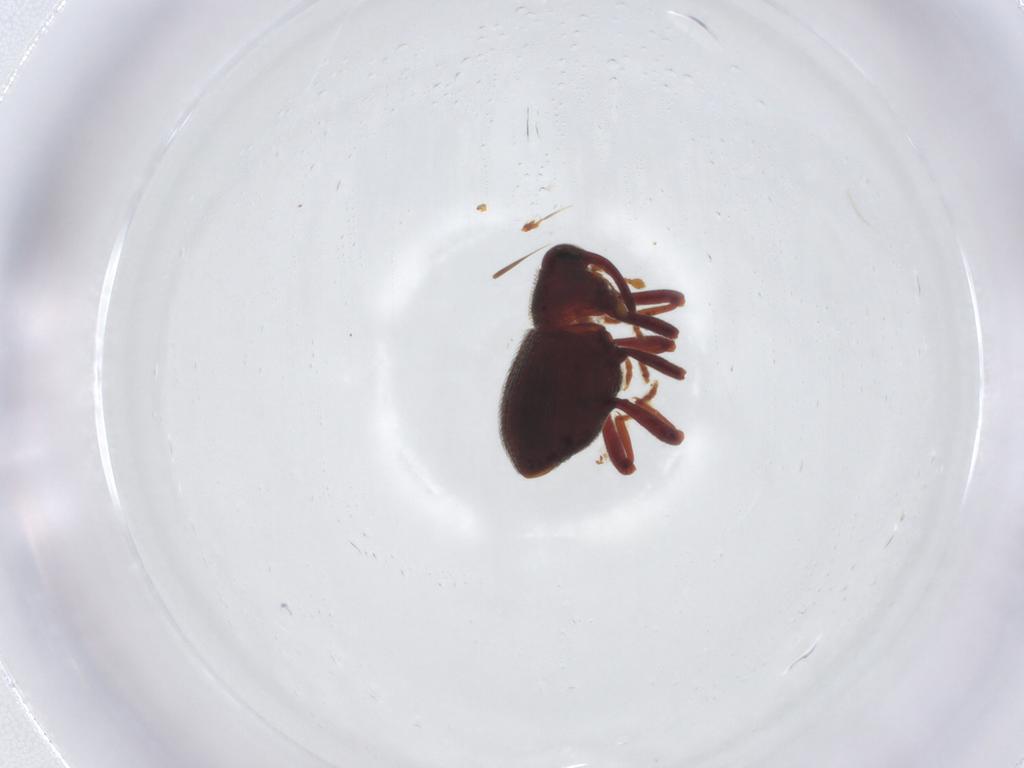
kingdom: Animalia
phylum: Arthropoda
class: Insecta
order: Coleoptera
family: Curculionidae
